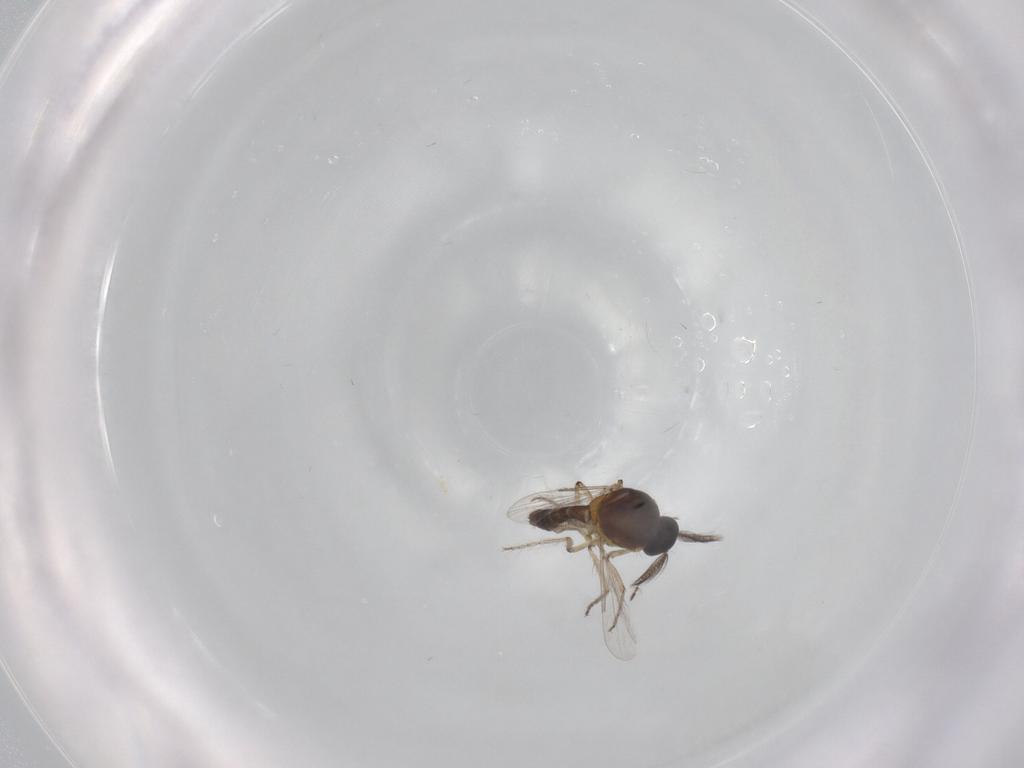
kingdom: Animalia
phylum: Arthropoda
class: Insecta
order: Diptera
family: Ceratopogonidae
